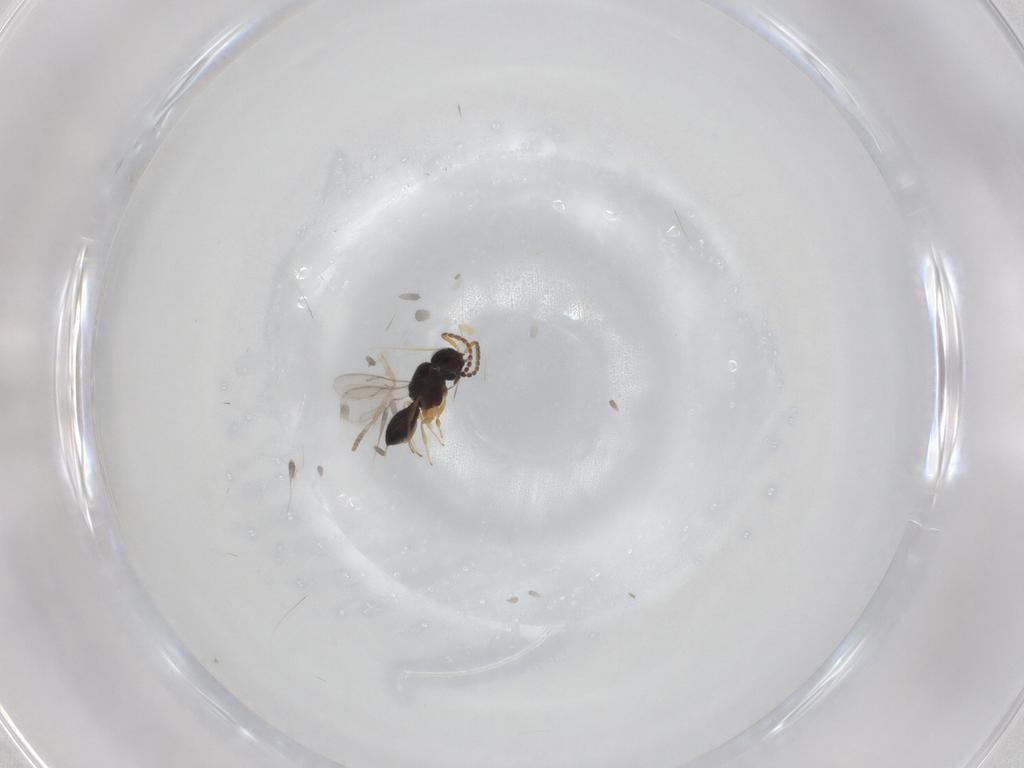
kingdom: Animalia
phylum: Arthropoda
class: Insecta
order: Hymenoptera
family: Scelionidae
